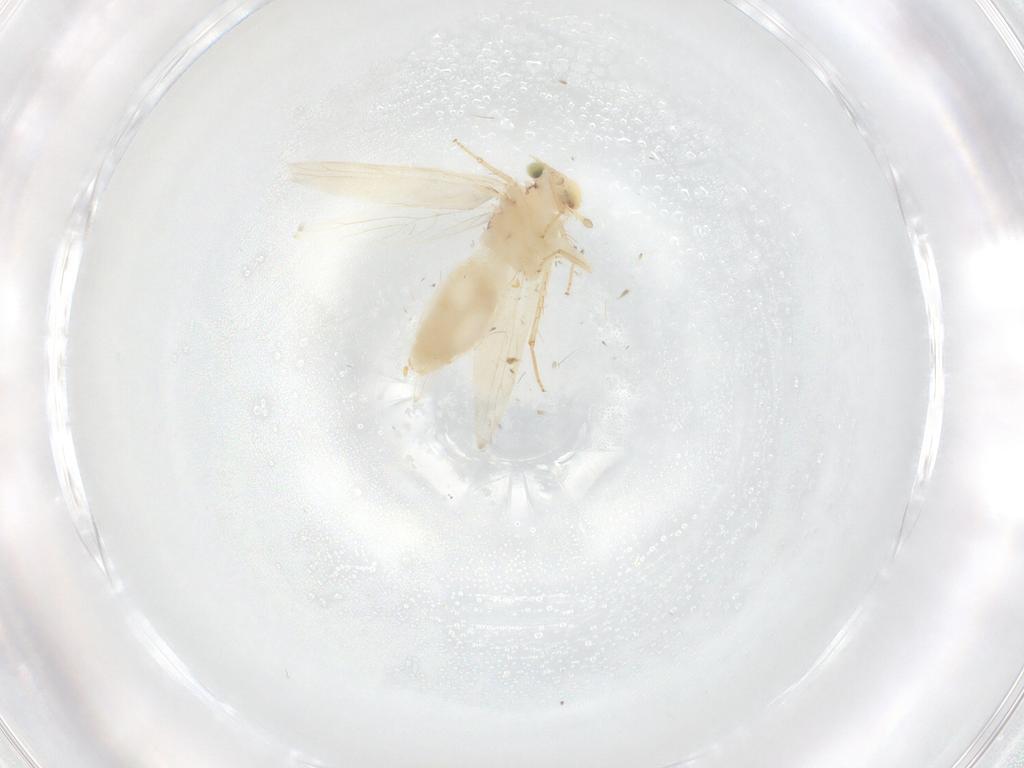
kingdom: Animalia
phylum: Arthropoda
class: Insecta
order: Psocodea
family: Lepidopsocidae
